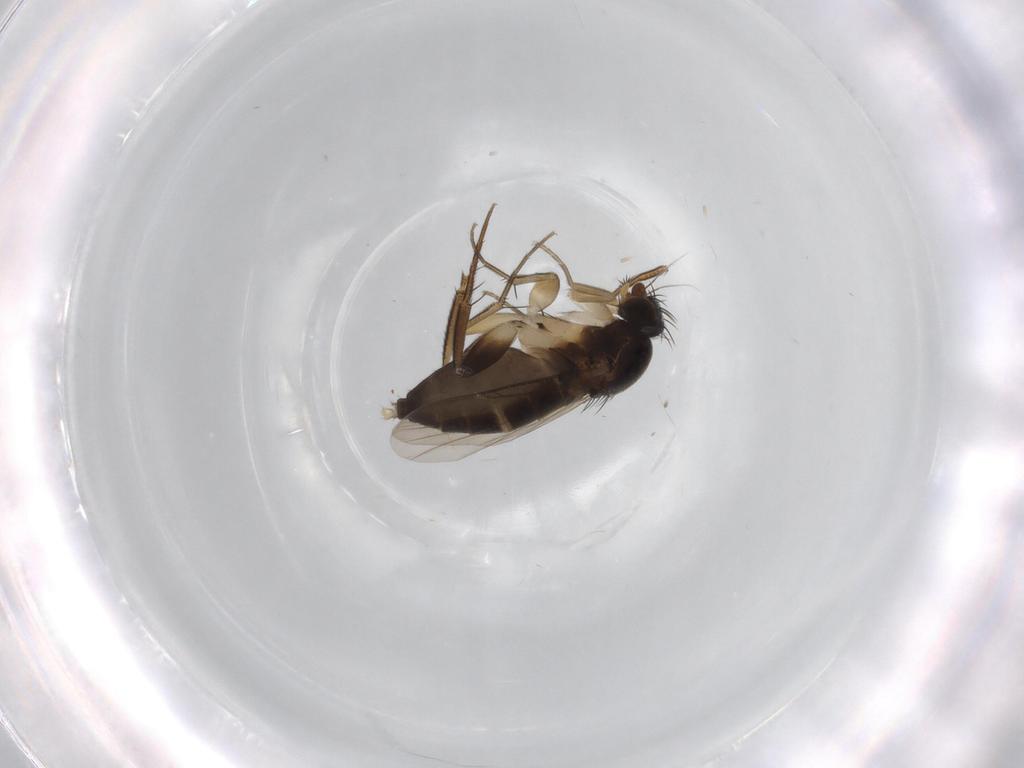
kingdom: Animalia
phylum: Arthropoda
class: Insecta
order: Diptera
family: Phoridae
